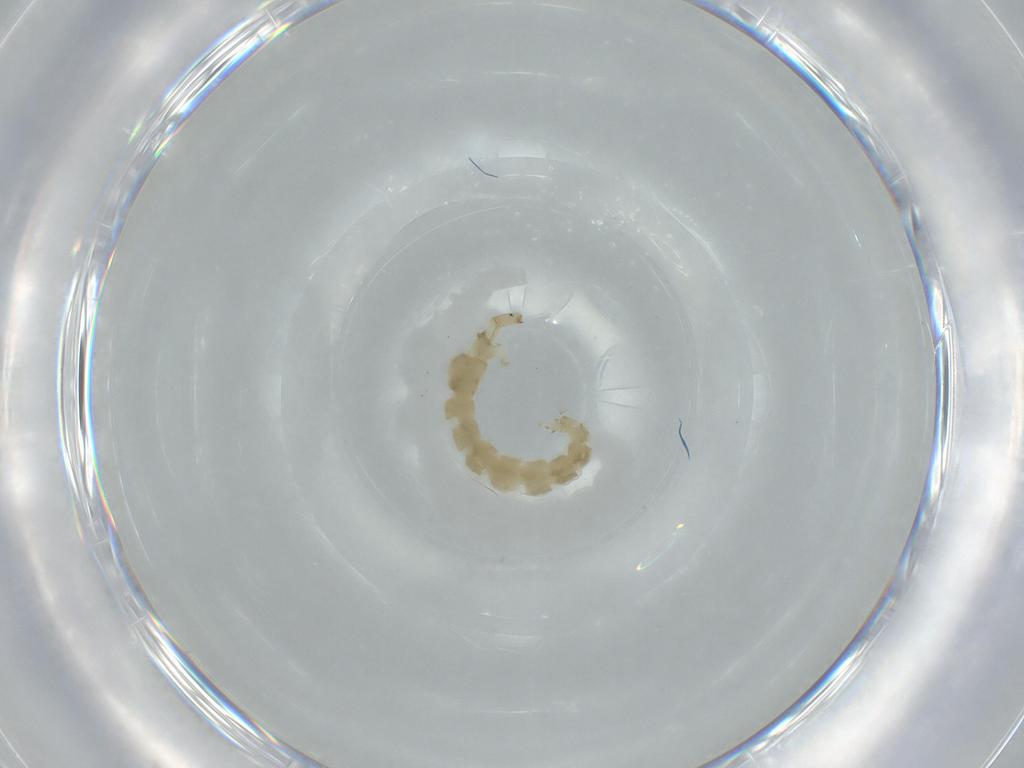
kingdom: Animalia
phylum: Arthropoda
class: Insecta
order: Diptera
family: Chironomidae
